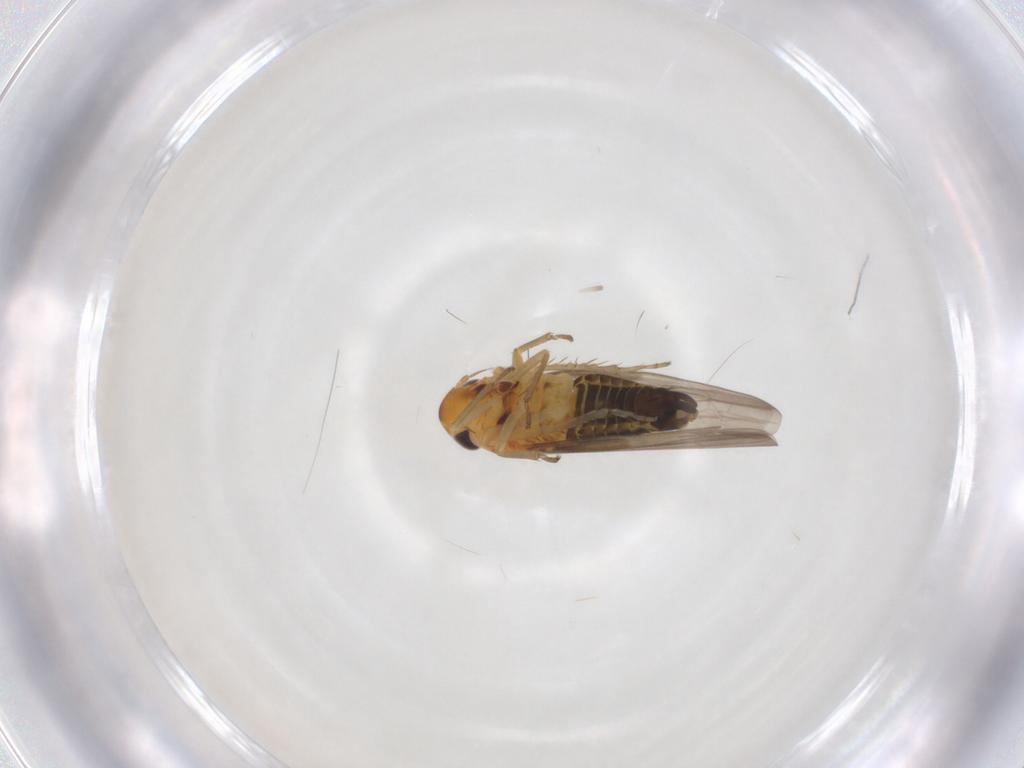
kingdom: Animalia
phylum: Arthropoda
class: Insecta
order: Hemiptera
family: Cicadellidae
